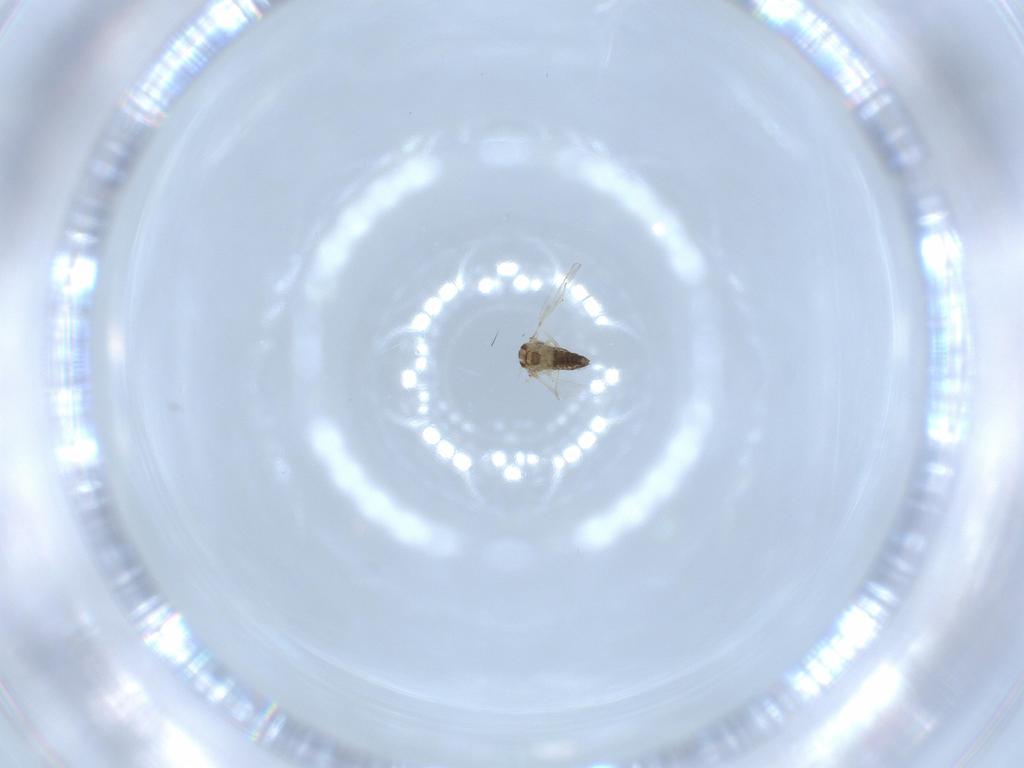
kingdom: Animalia
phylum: Arthropoda
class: Insecta
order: Diptera
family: Chironomidae
